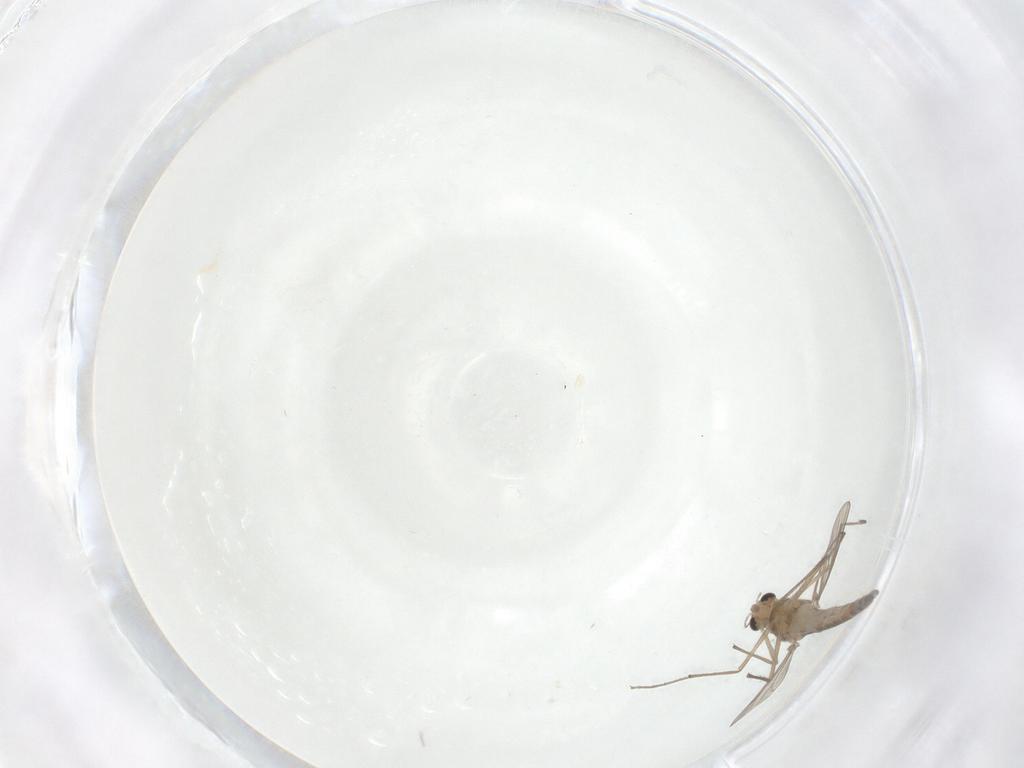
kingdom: Animalia
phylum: Arthropoda
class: Insecta
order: Diptera
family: Chironomidae
